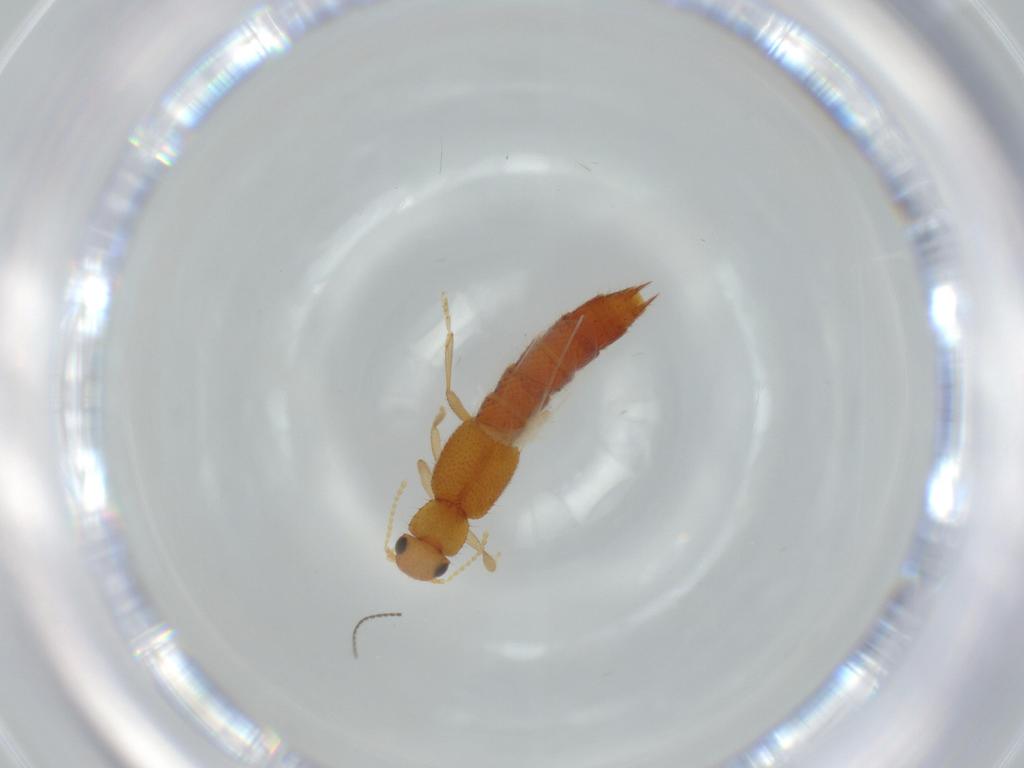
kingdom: Animalia
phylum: Arthropoda
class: Insecta
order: Coleoptera
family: Staphylinidae
